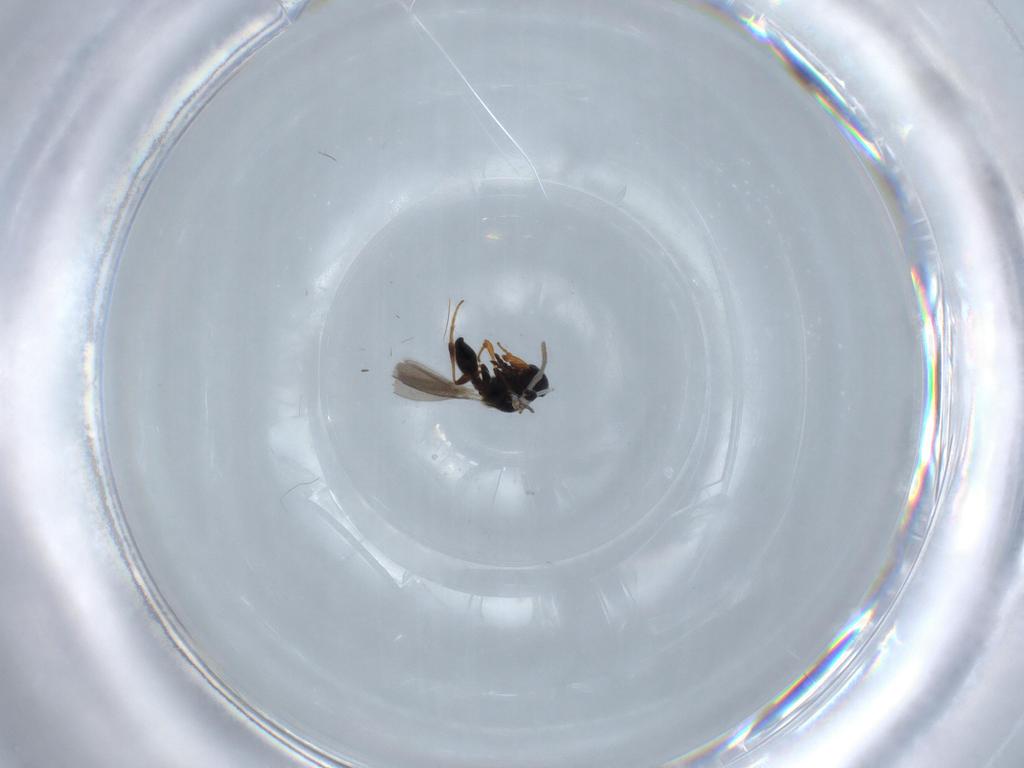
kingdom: Animalia
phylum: Arthropoda
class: Insecta
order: Hymenoptera
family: Platygastridae
